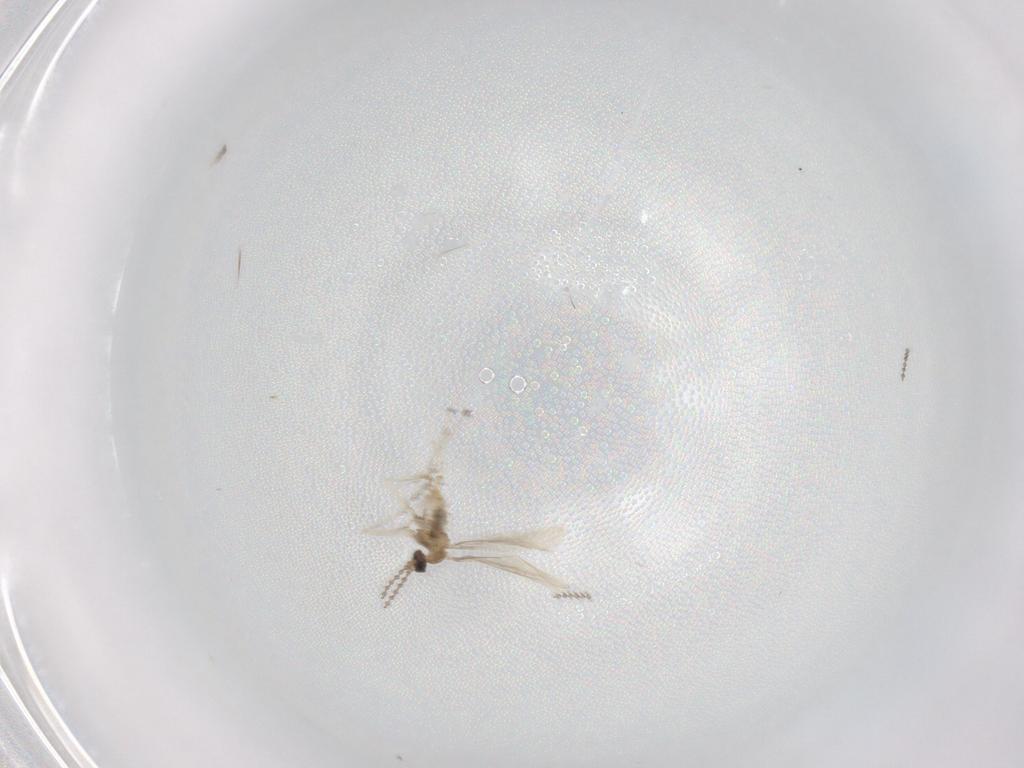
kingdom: Animalia
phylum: Arthropoda
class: Insecta
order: Diptera
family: Cecidomyiidae
